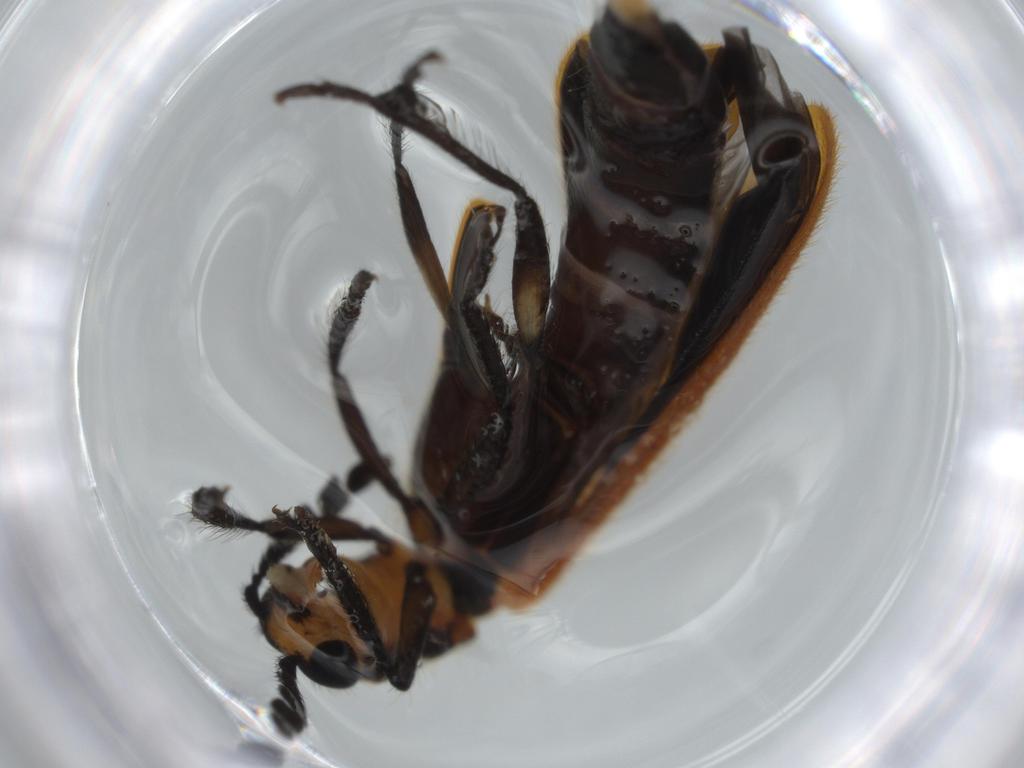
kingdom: Animalia
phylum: Arthropoda
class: Insecta
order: Coleoptera
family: Cleridae
